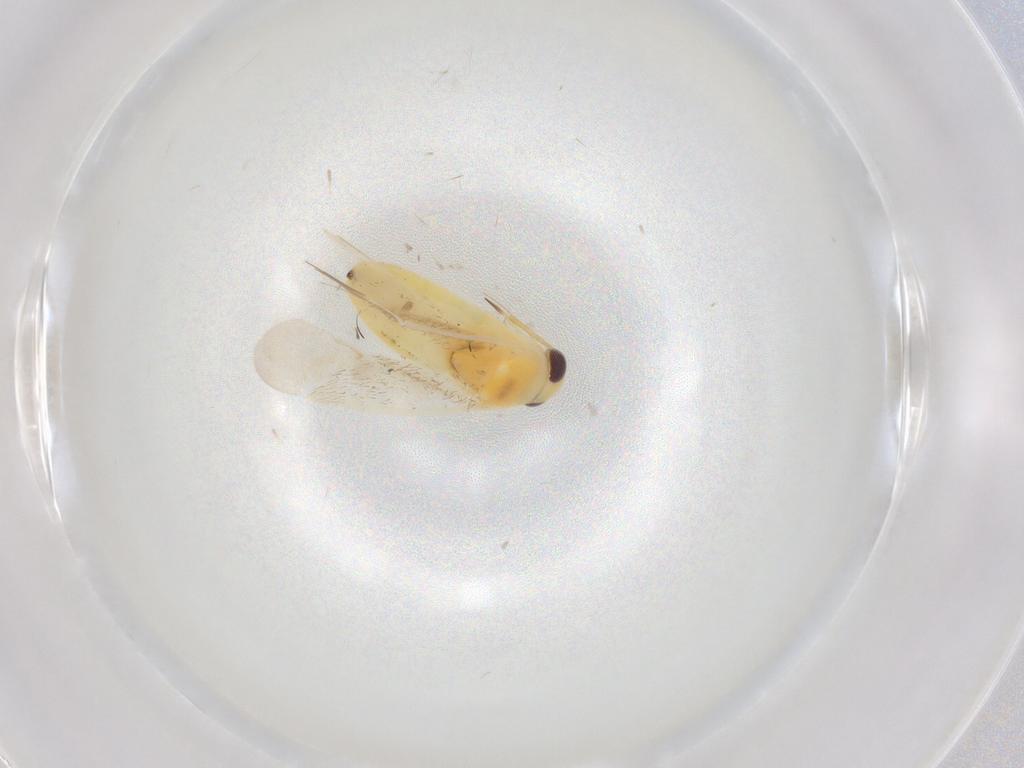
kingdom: Animalia
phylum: Arthropoda
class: Insecta
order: Hemiptera
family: Miridae
